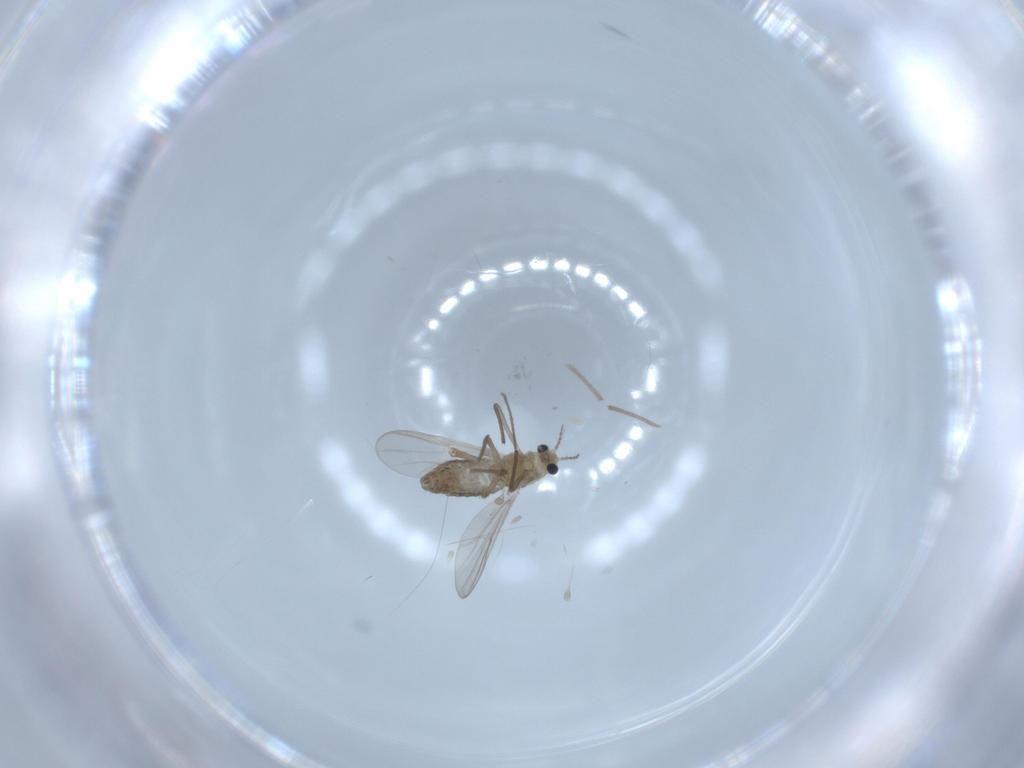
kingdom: Animalia
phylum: Arthropoda
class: Insecta
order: Diptera
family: Chironomidae
